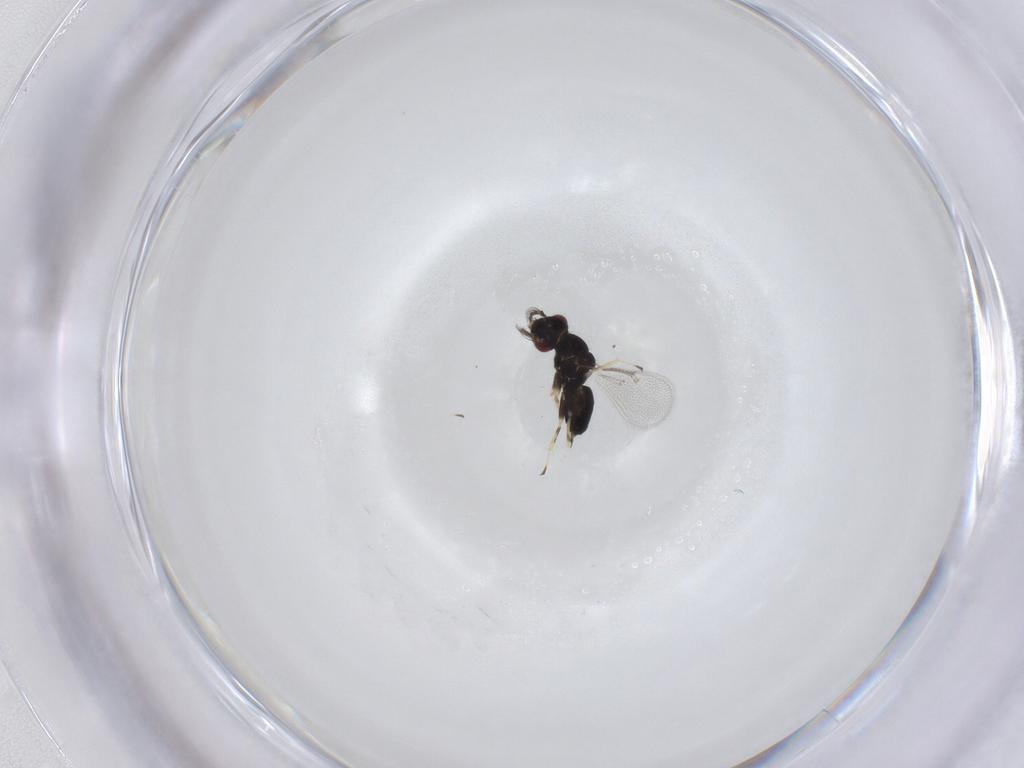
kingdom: Animalia
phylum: Arthropoda
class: Insecta
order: Hymenoptera
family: Eulophidae
